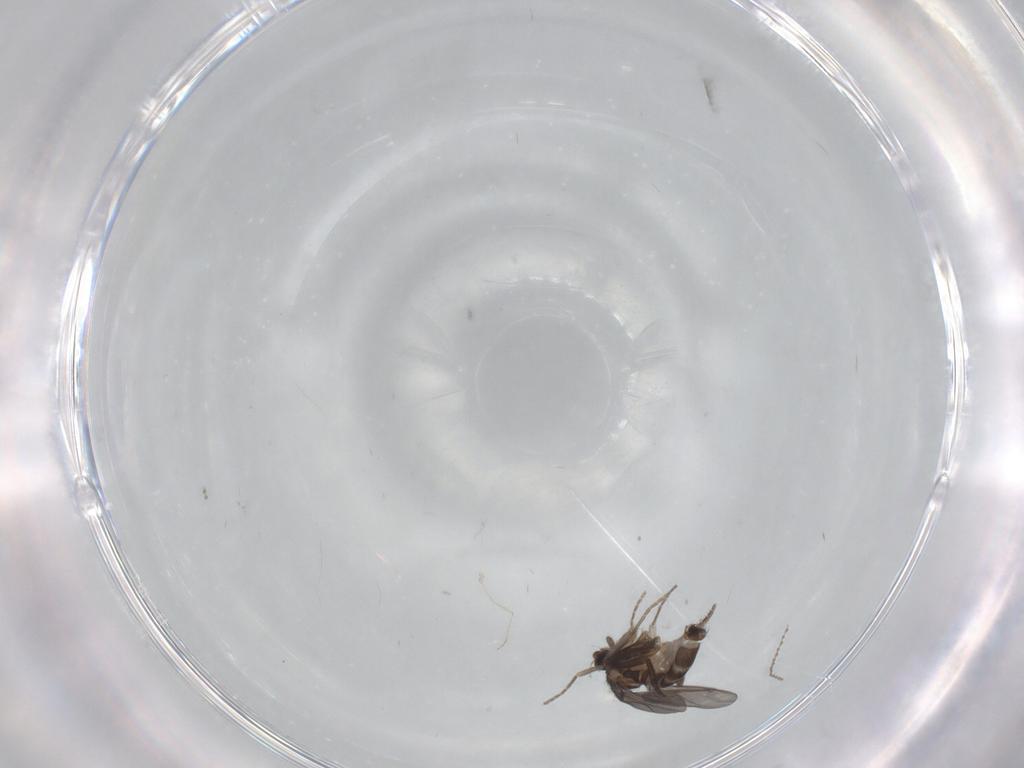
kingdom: Animalia
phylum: Arthropoda
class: Insecta
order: Diptera
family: Cecidomyiidae
